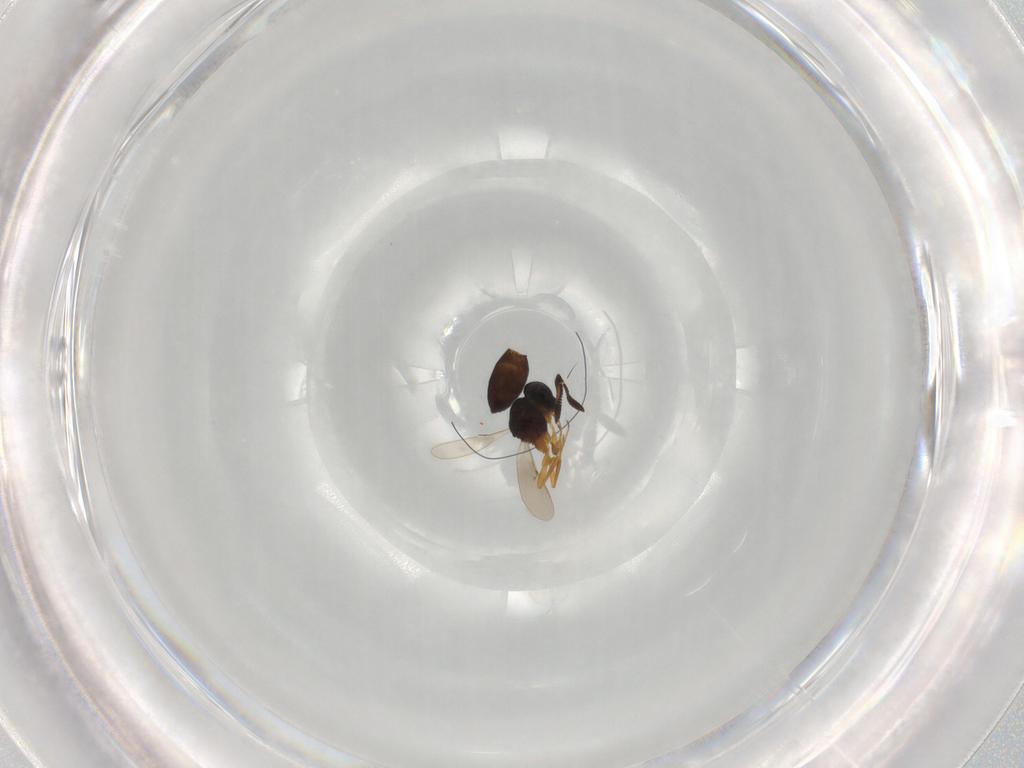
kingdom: Animalia
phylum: Arthropoda
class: Insecta
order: Hymenoptera
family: Scelionidae
